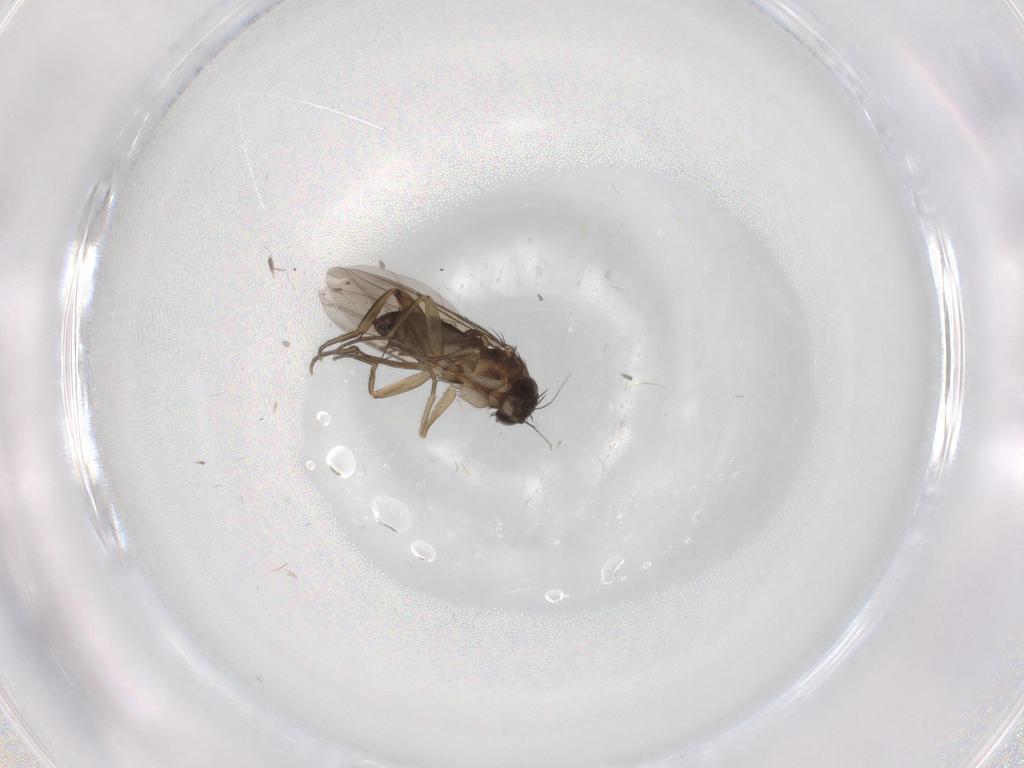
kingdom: Animalia
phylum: Arthropoda
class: Insecta
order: Diptera
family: Phoridae
